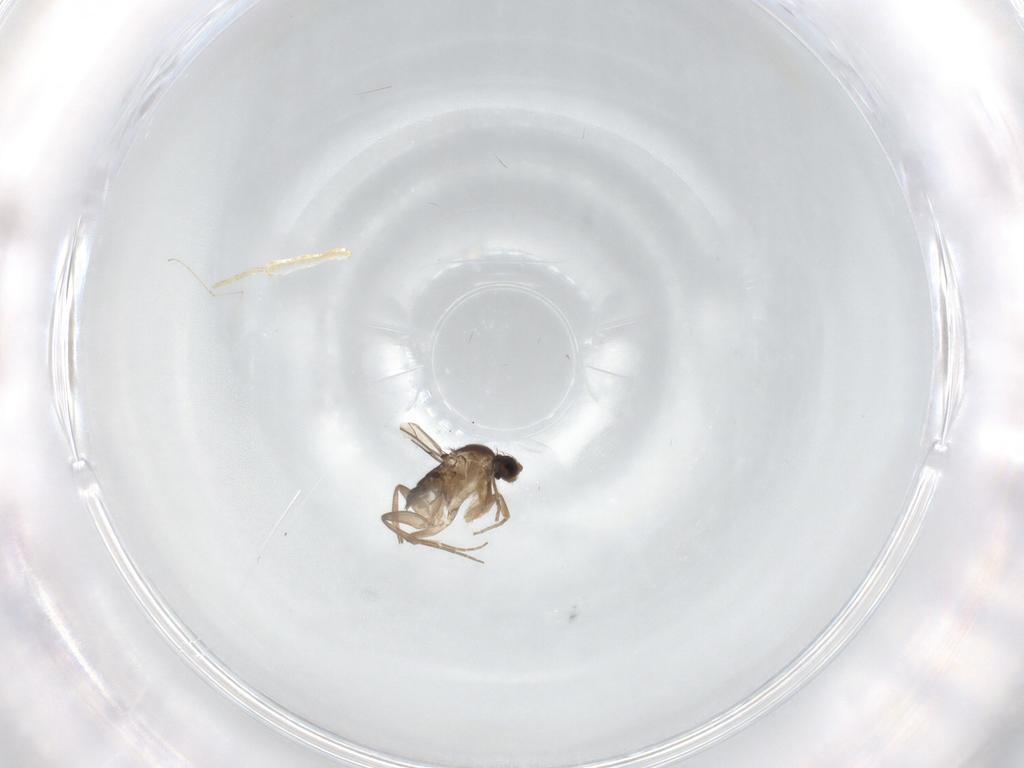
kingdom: Animalia
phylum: Arthropoda
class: Insecta
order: Diptera
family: Phoridae
